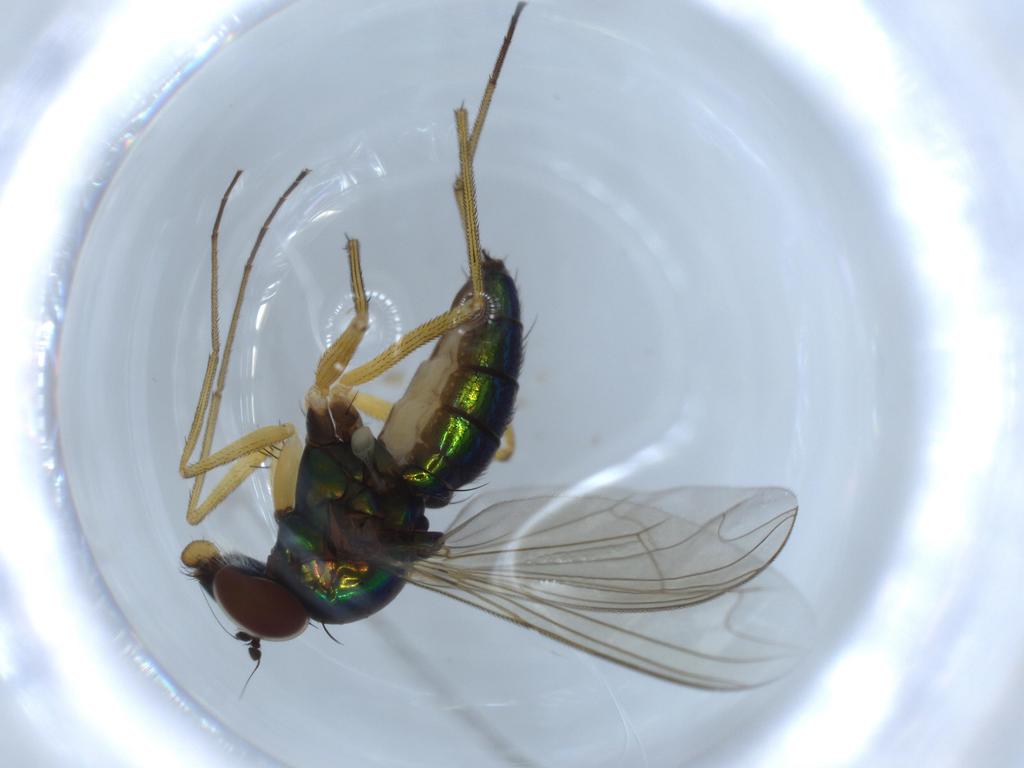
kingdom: Animalia
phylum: Arthropoda
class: Insecta
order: Diptera
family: Dolichopodidae
